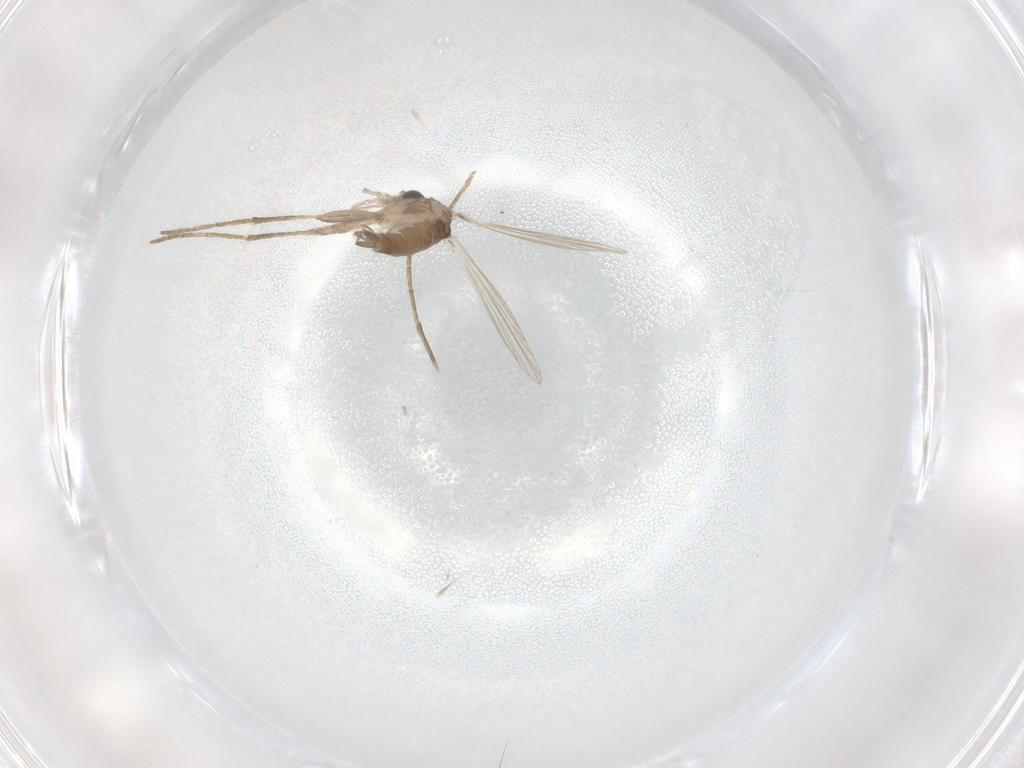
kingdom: Animalia
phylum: Arthropoda
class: Insecta
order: Diptera
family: Psychodidae
